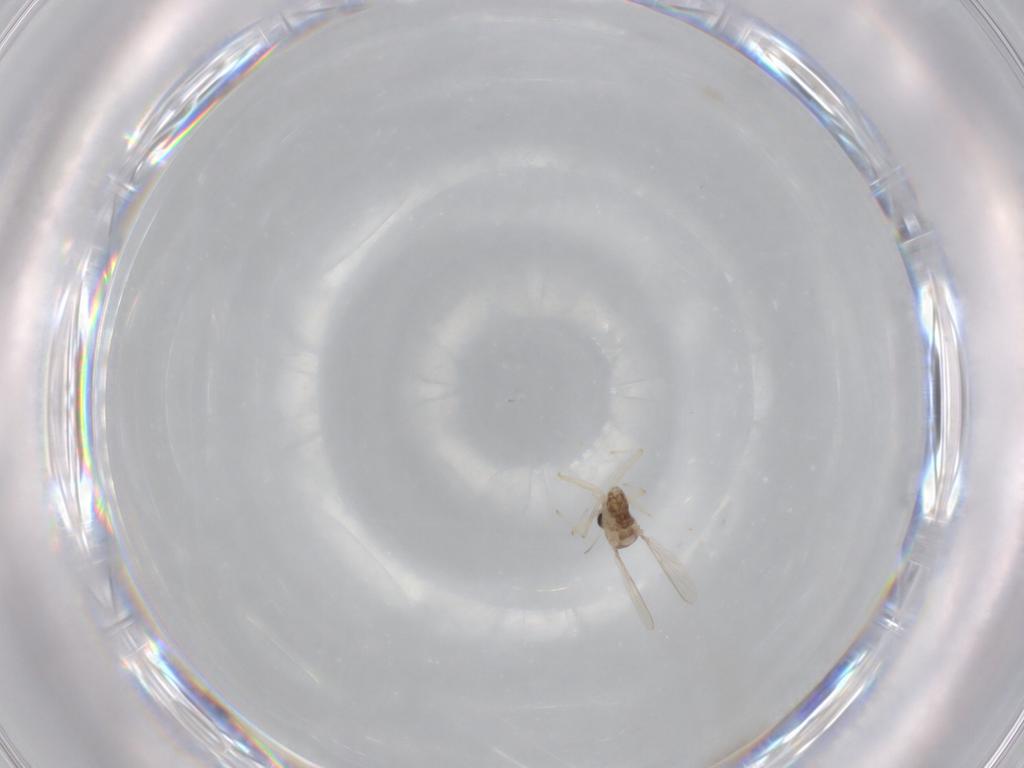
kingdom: Animalia
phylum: Arthropoda
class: Insecta
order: Diptera
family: Chironomidae
